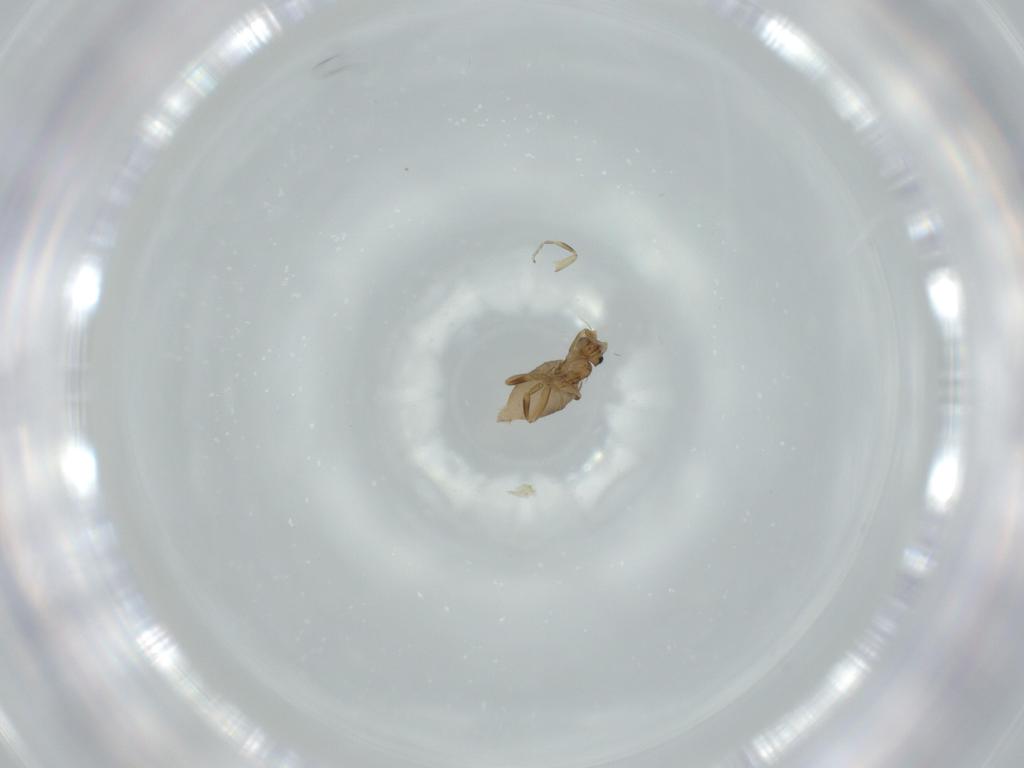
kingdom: Animalia
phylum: Arthropoda
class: Insecta
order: Diptera
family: Phoridae
